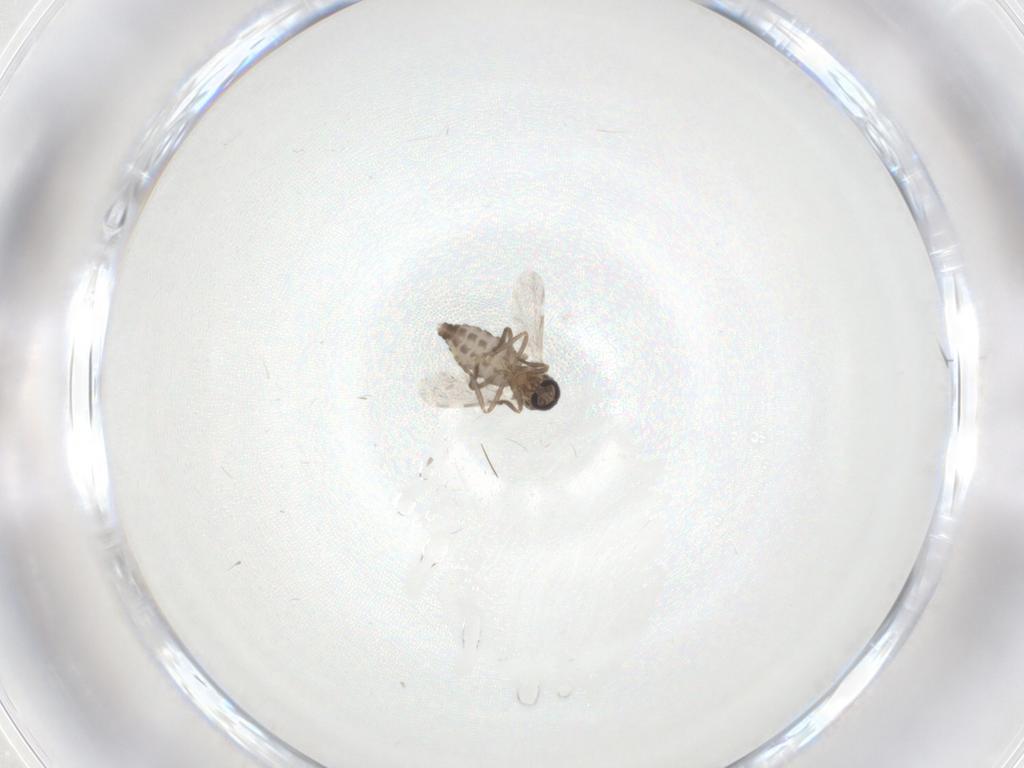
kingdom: Animalia
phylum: Arthropoda
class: Insecta
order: Diptera
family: Ceratopogonidae
